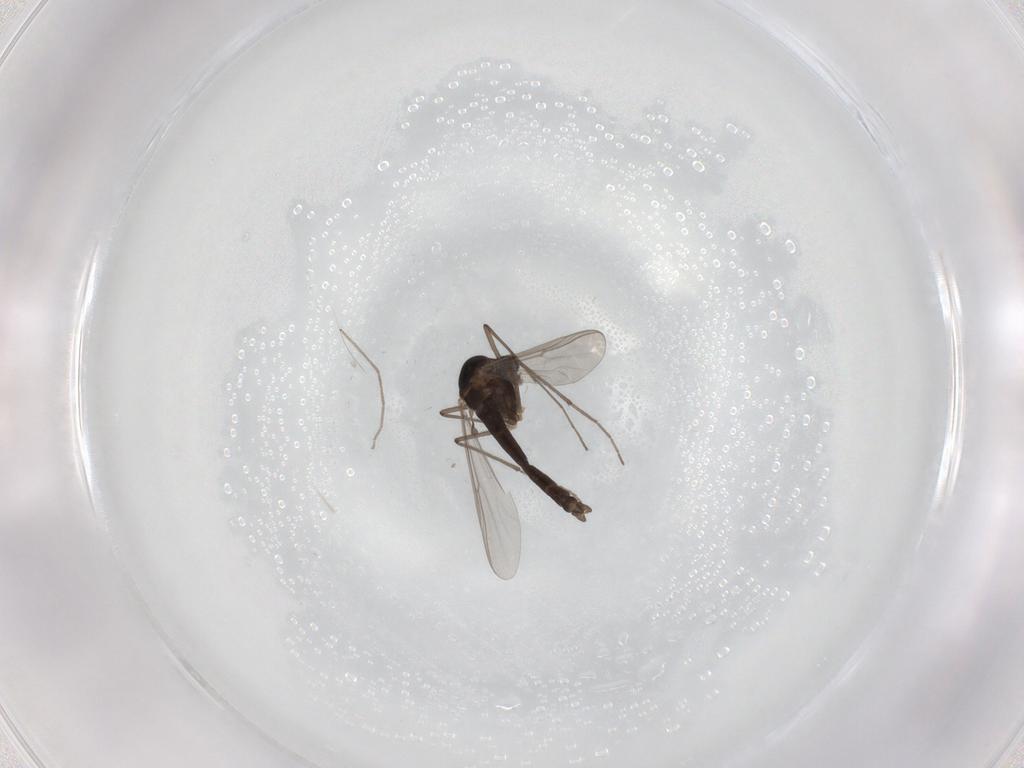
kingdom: Animalia
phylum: Arthropoda
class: Insecta
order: Diptera
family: Chironomidae
